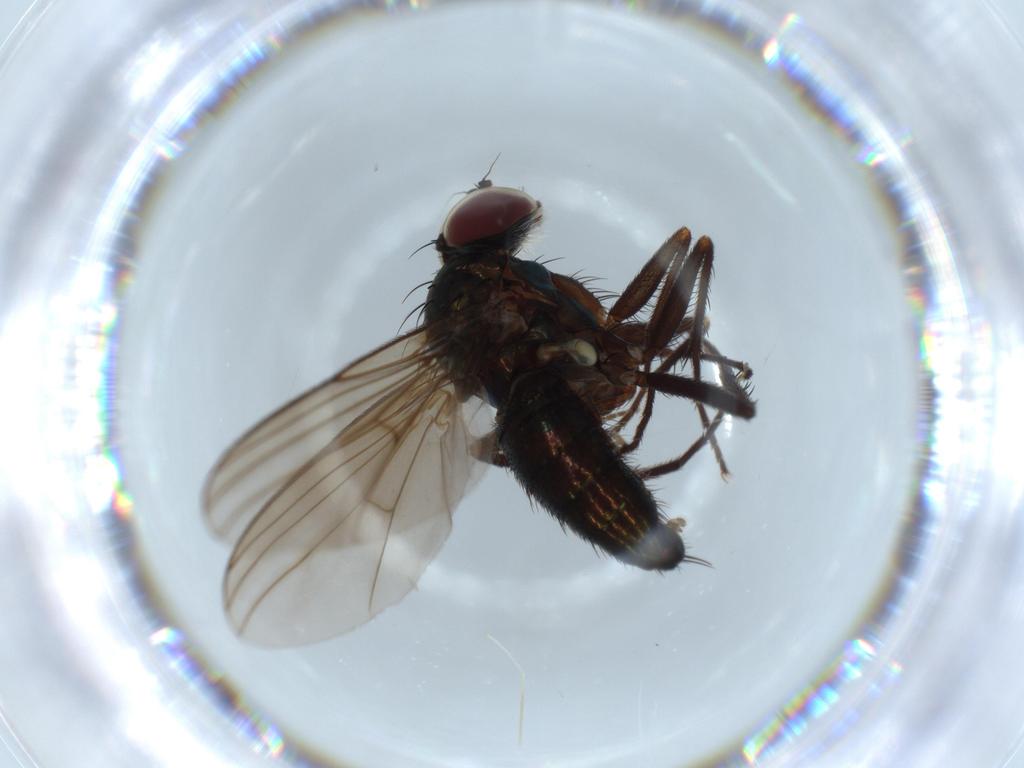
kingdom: Animalia
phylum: Arthropoda
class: Insecta
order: Diptera
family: Dolichopodidae
